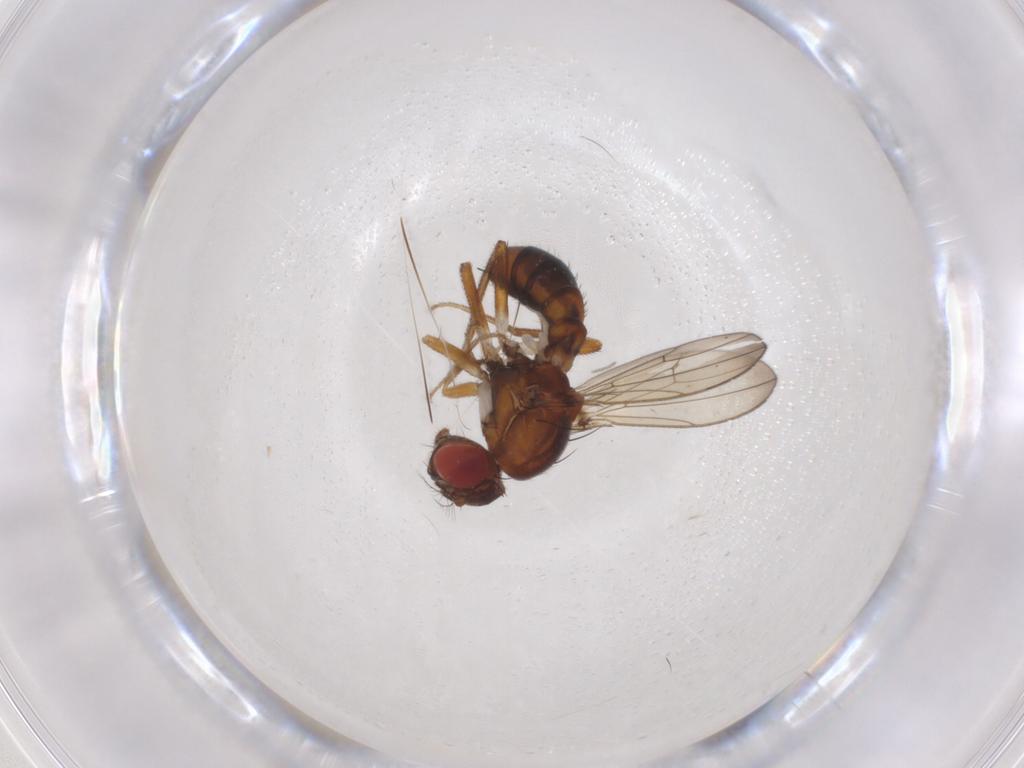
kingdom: Animalia
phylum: Arthropoda
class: Insecta
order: Diptera
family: Drosophilidae
